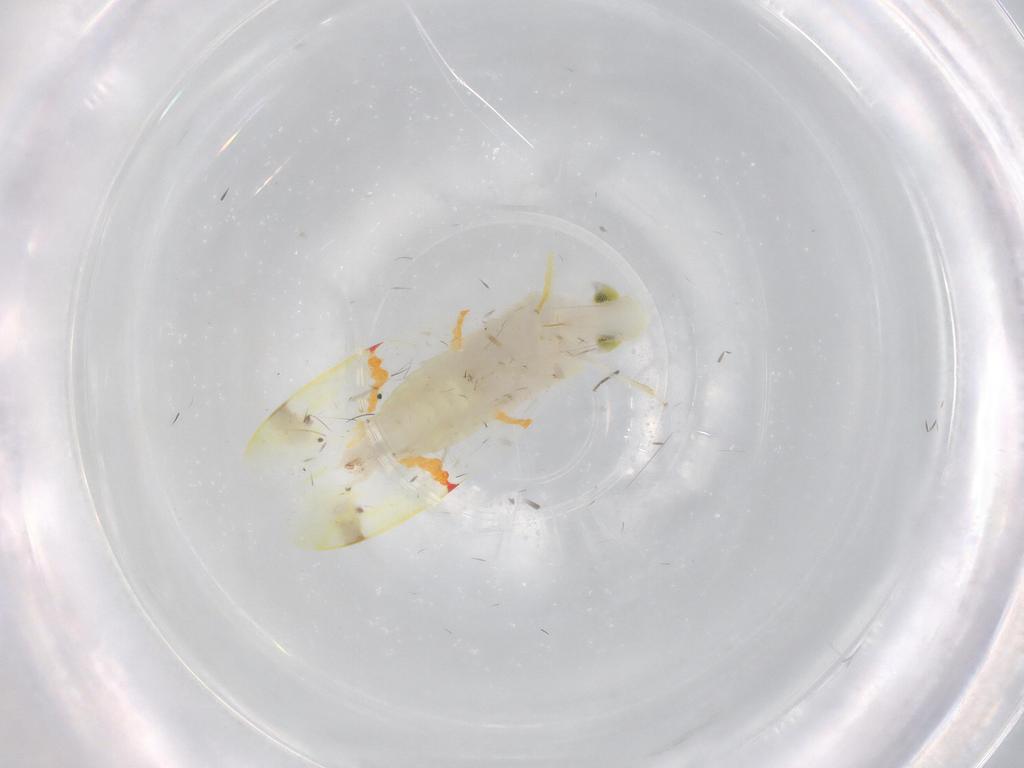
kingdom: Animalia
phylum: Arthropoda
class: Insecta
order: Hemiptera
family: Cicadellidae
